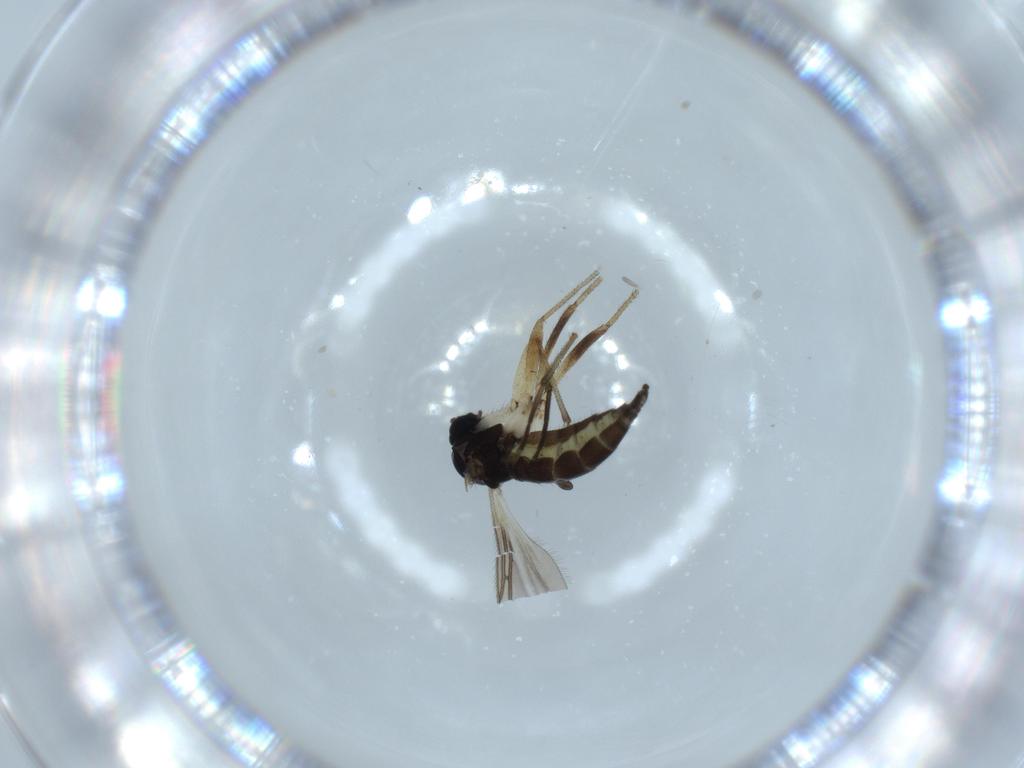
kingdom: Animalia
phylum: Arthropoda
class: Insecta
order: Diptera
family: Sciaridae
